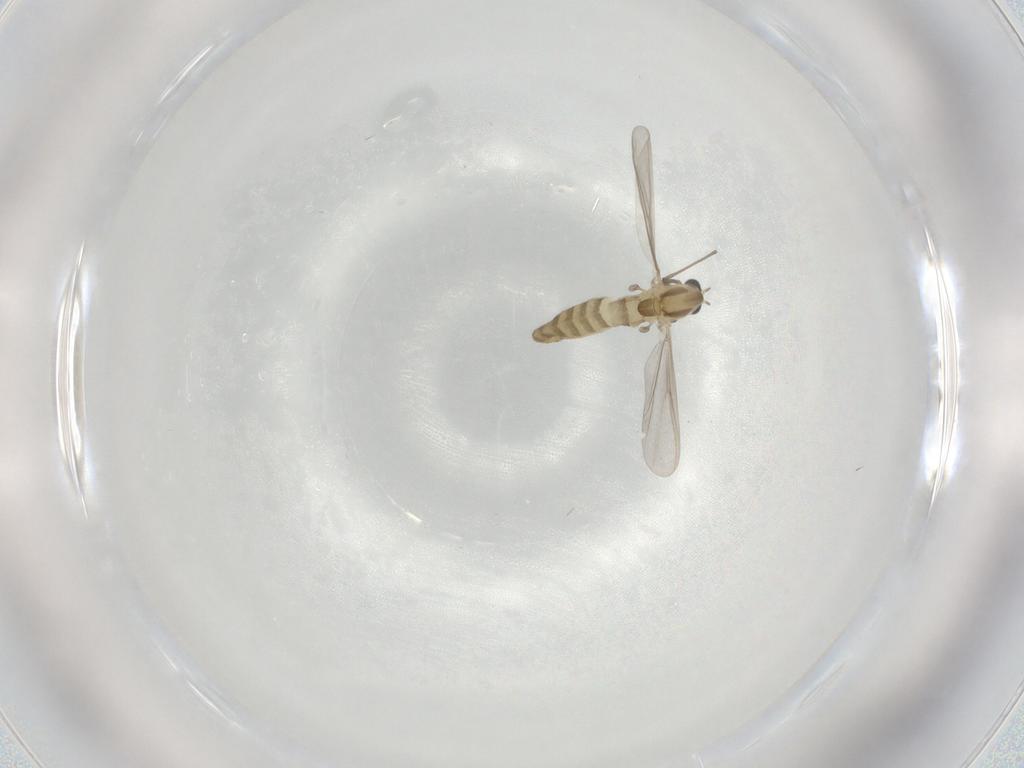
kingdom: Animalia
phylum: Arthropoda
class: Insecta
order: Diptera
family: Chironomidae
